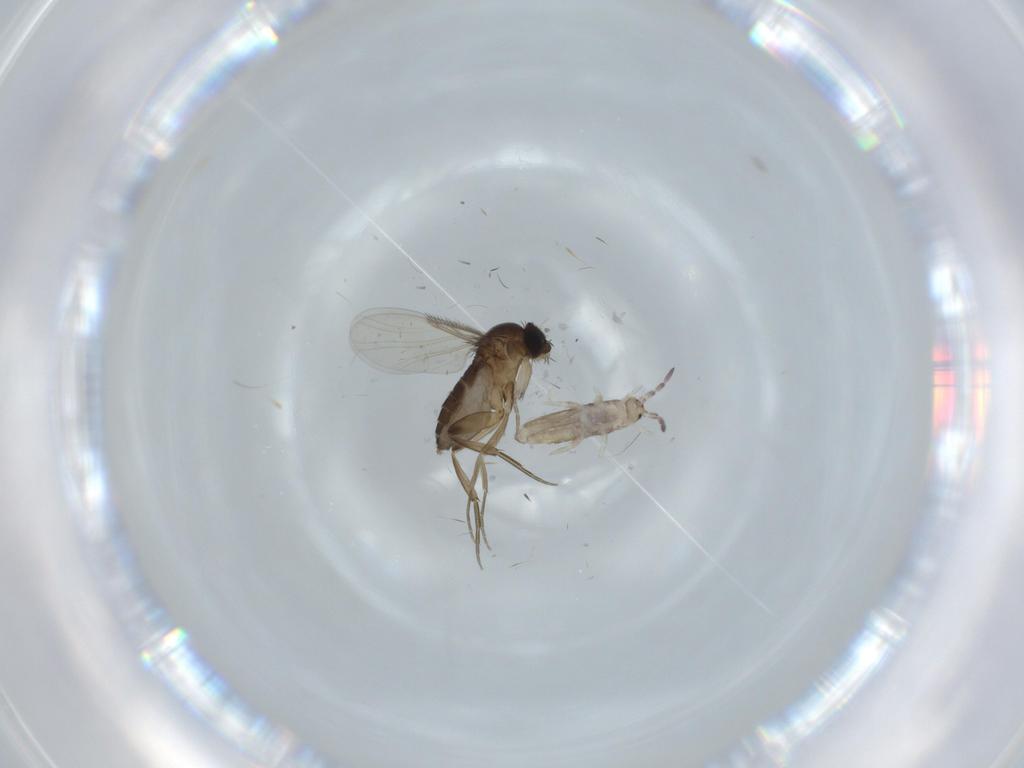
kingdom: Animalia
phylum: Arthropoda
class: Collembola
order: Entomobryomorpha
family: Entomobryidae
